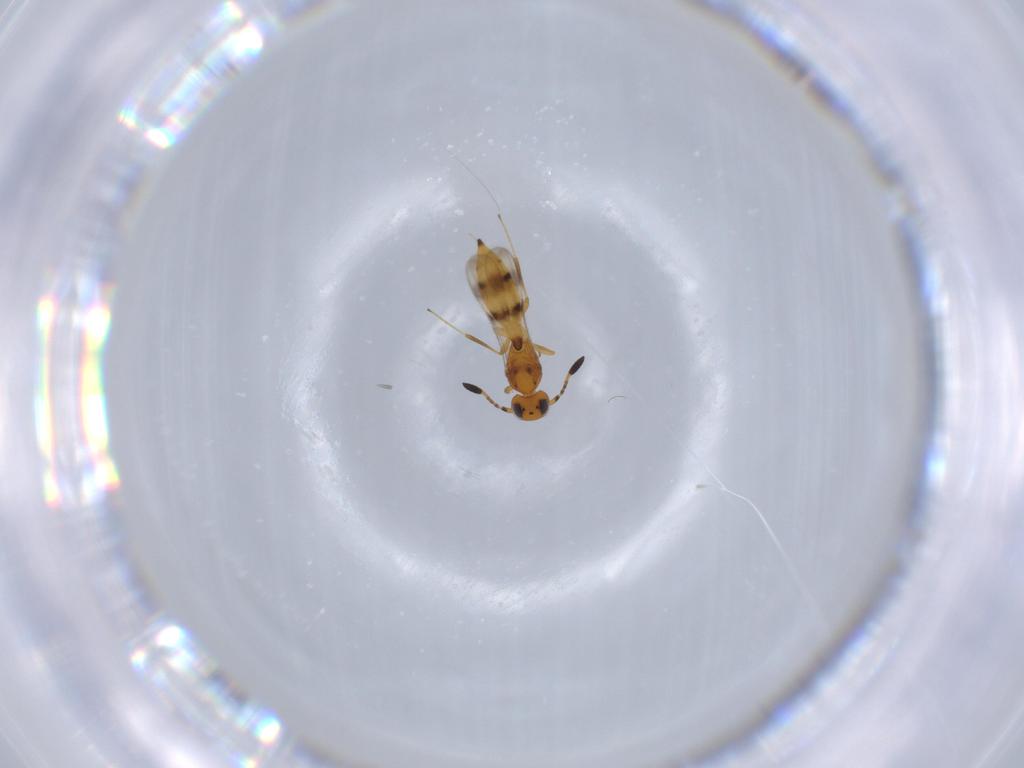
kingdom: Animalia
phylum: Arthropoda
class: Insecta
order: Hymenoptera
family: Scelionidae
